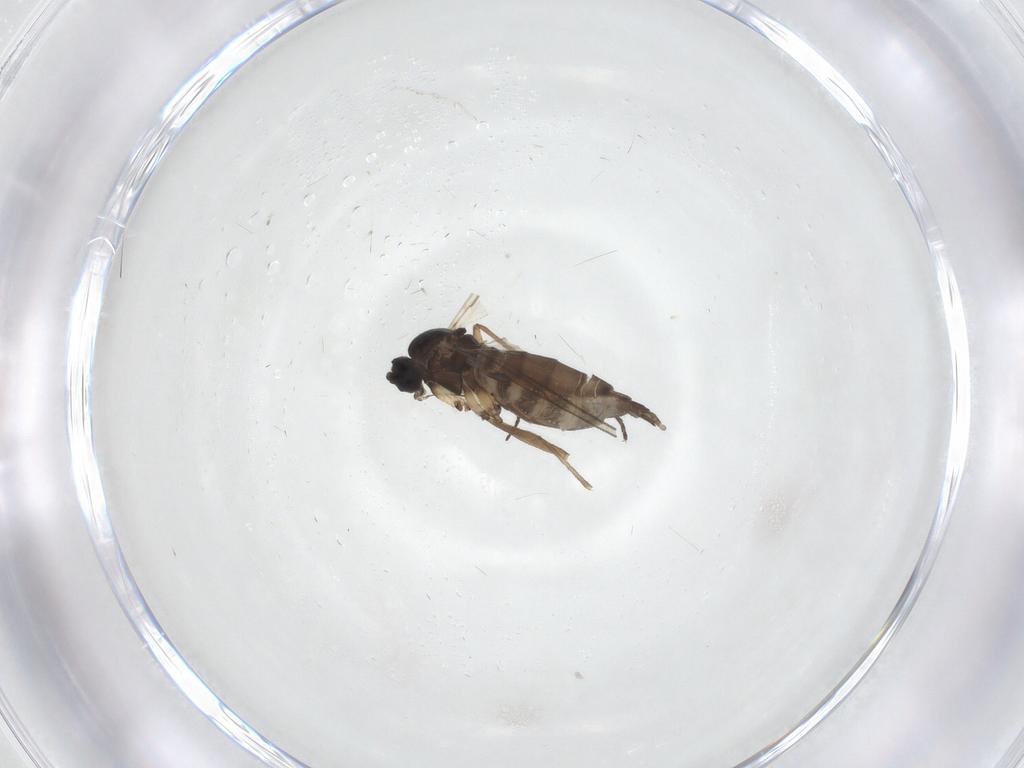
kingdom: Animalia
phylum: Arthropoda
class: Insecta
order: Diptera
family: Sciaridae
